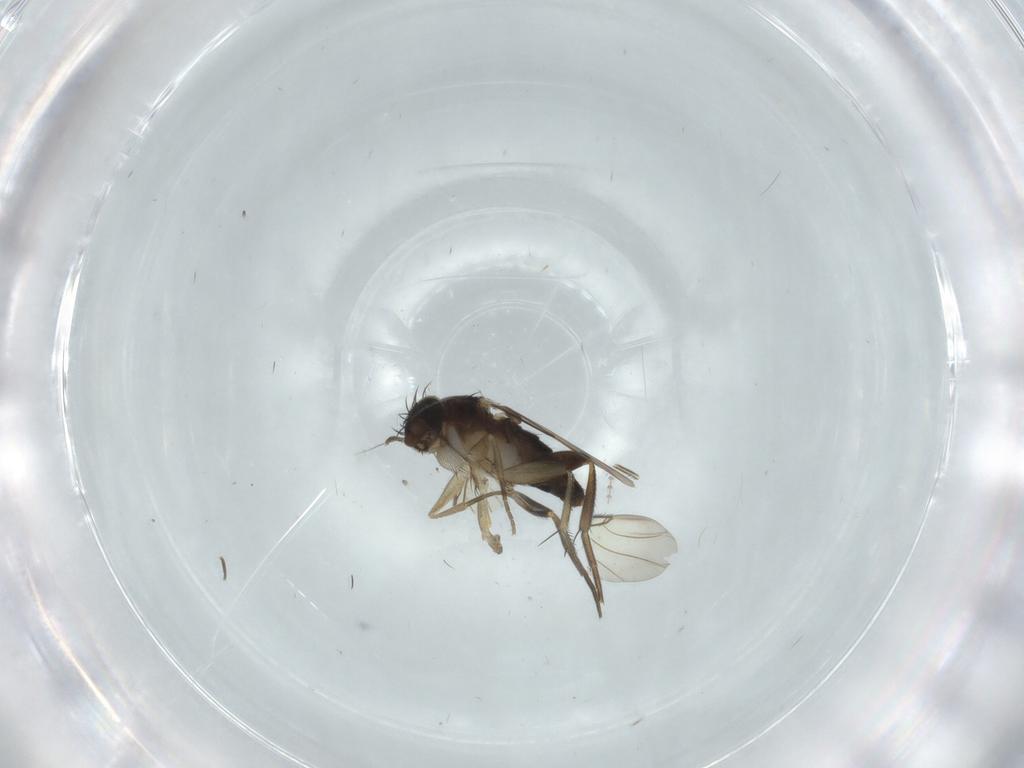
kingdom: Animalia
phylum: Arthropoda
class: Insecta
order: Diptera
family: Phoridae
